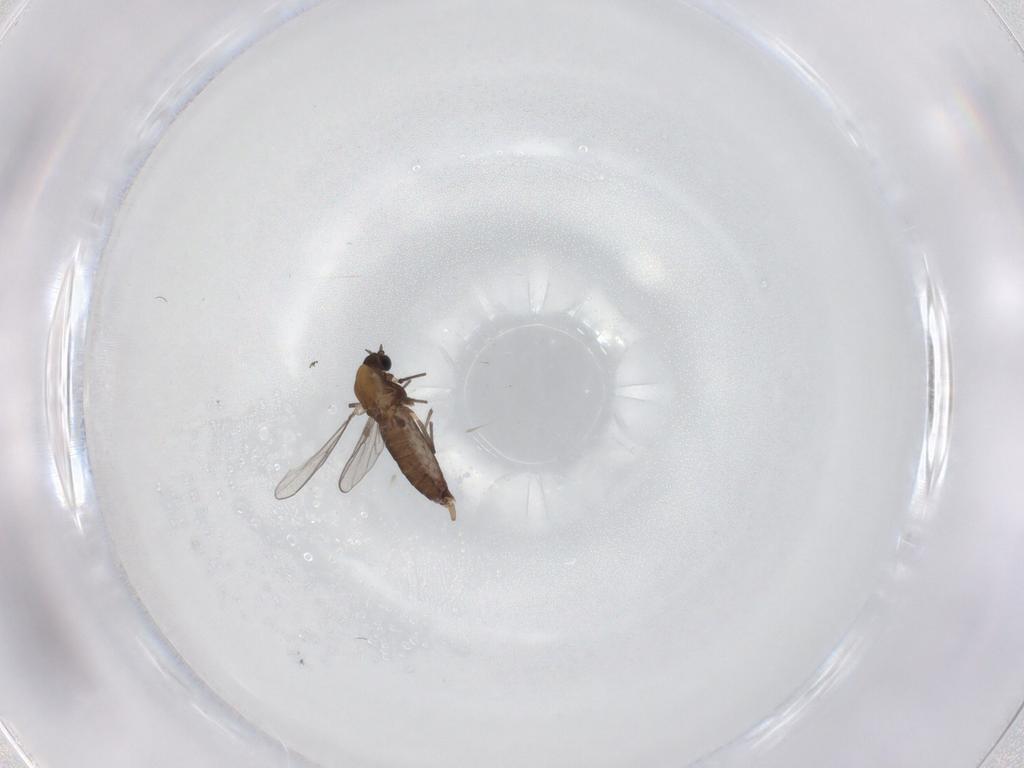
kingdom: Animalia
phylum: Arthropoda
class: Insecta
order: Diptera
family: Chironomidae
